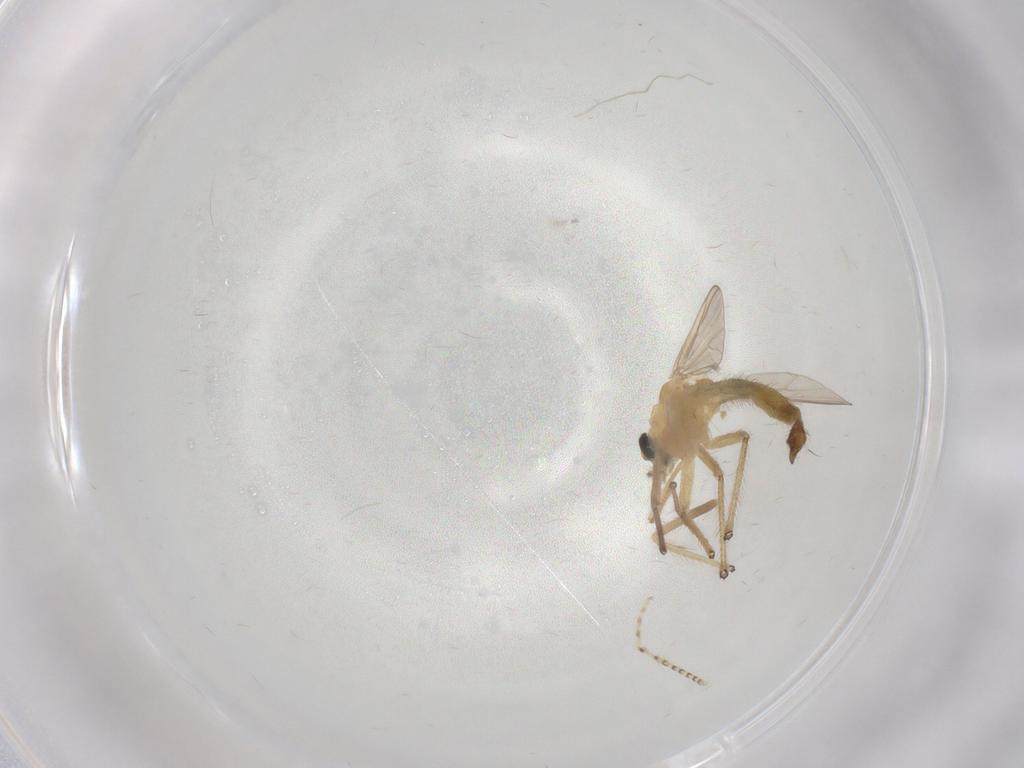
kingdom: Animalia
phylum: Arthropoda
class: Insecta
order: Diptera
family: Chironomidae
